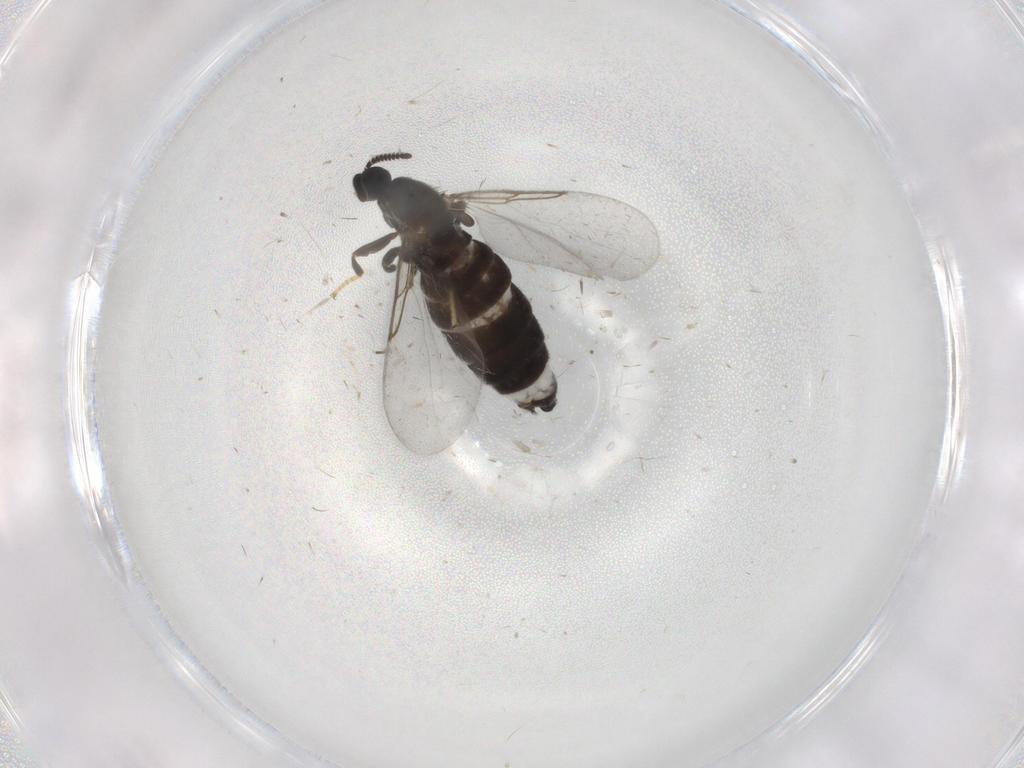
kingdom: Animalia
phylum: Arthropoda
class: Insecta
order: Diptera
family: Scatopsidae
